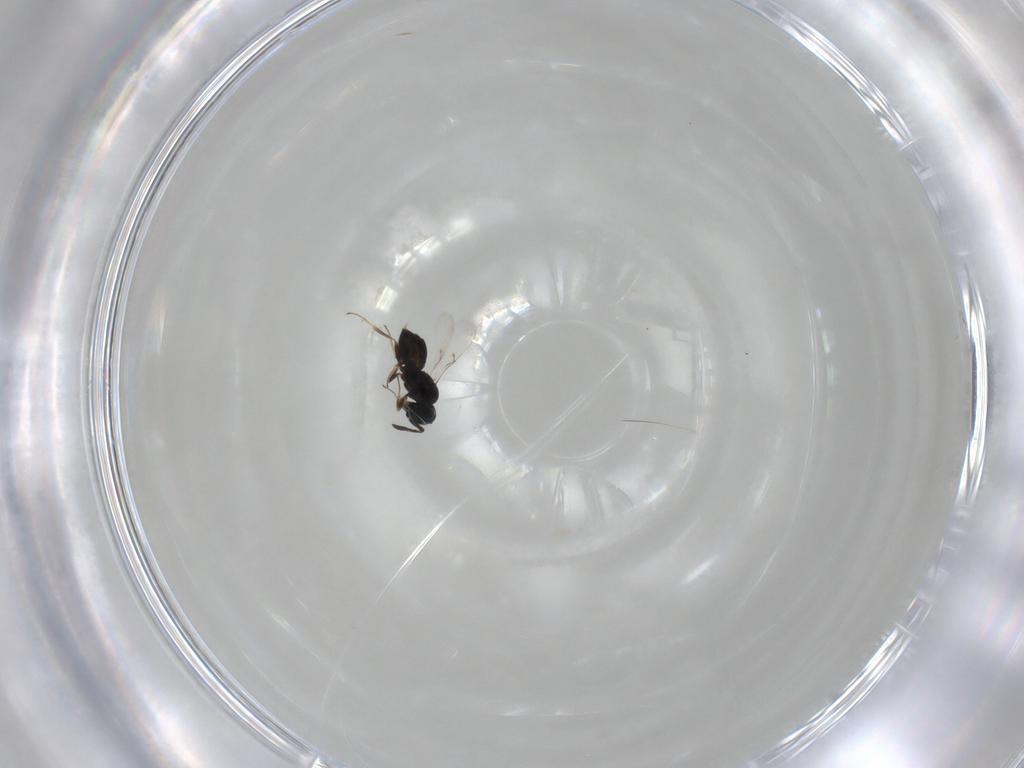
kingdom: Animalia
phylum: Arthropoda
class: Insecta
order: Hymenoptera
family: Scelionidae
